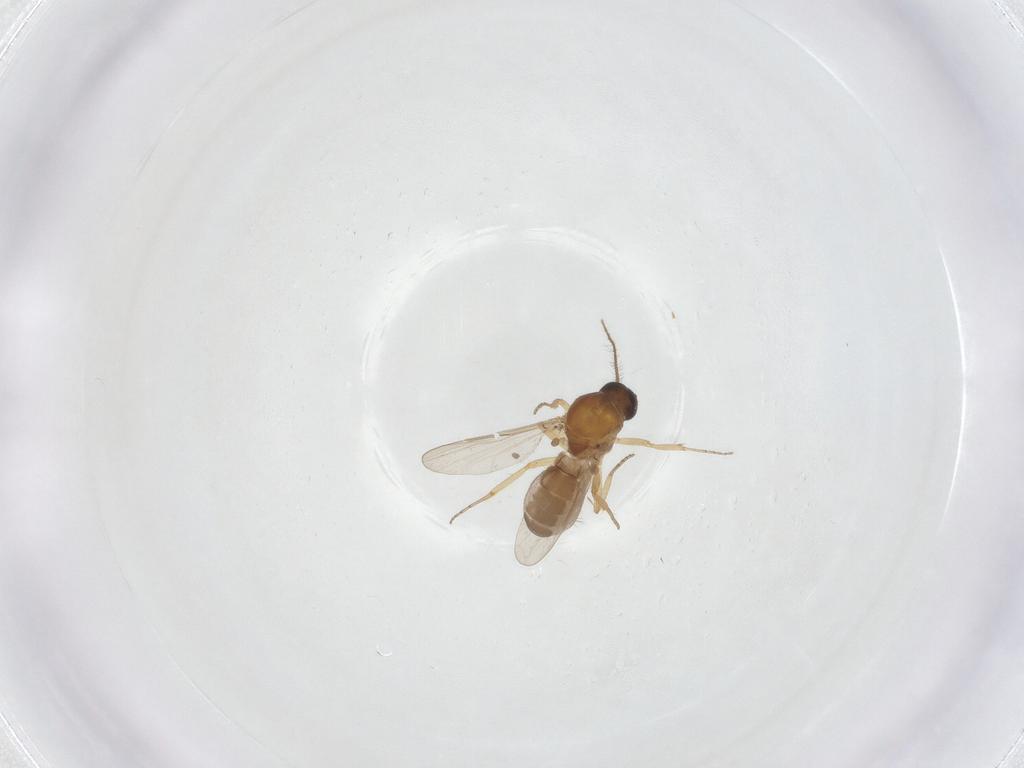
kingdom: Animalia
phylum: Arthropoda
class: Insecta
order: Diptera
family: Ceratopogonidae
